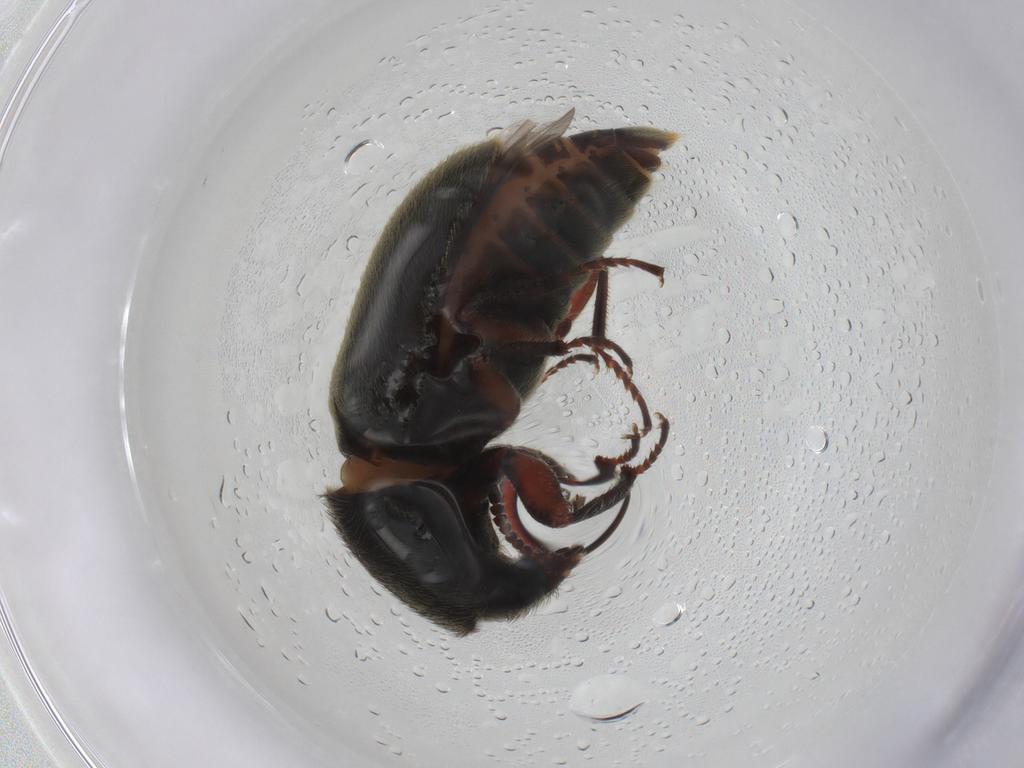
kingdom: Animalia
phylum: Arthropoda
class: Insecta
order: Coleoptera
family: Melyridae
